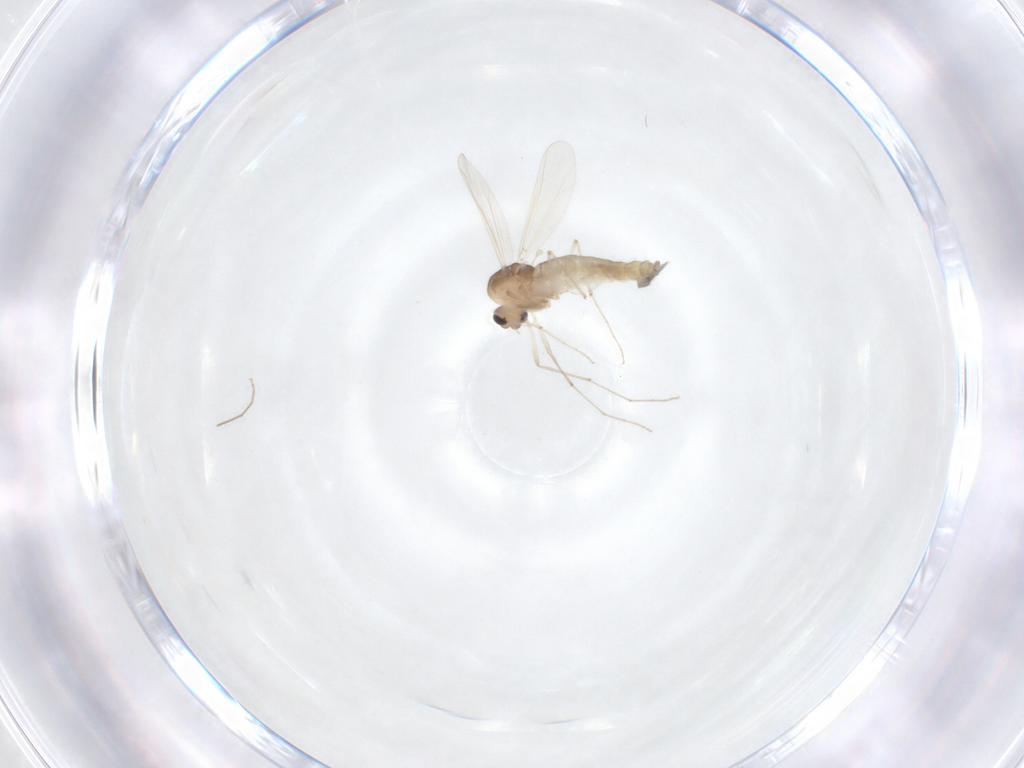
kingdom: Animalia
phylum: Arthropoda
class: Insecta
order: Diptera
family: Chironomidae
